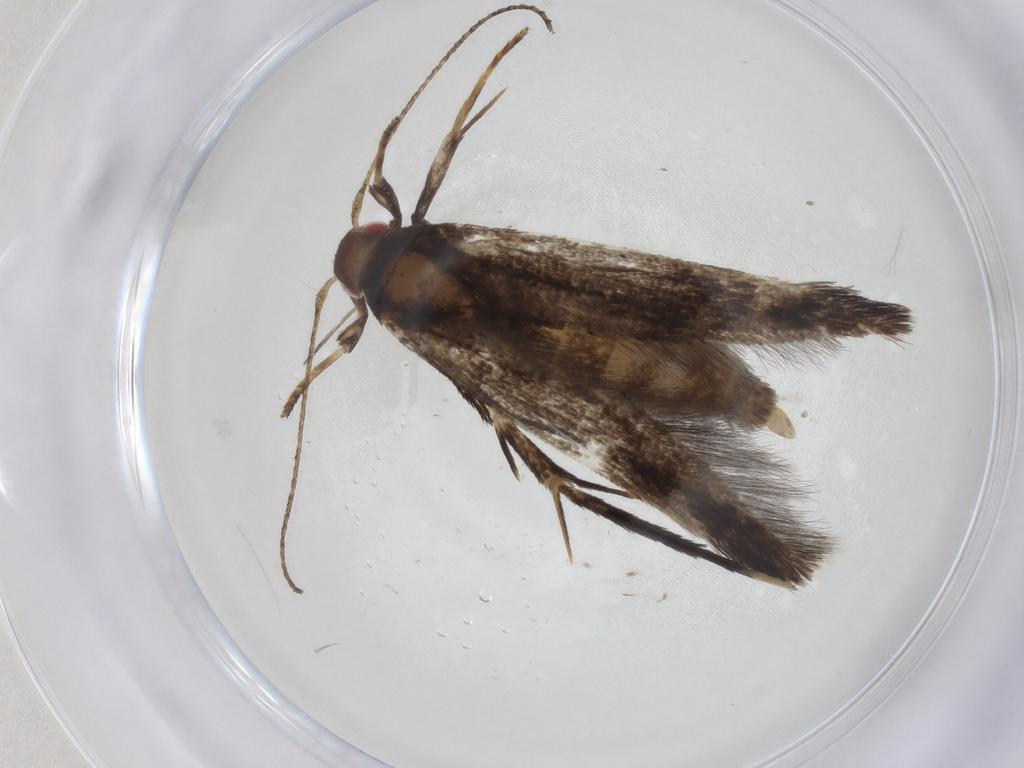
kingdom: Animalia
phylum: Arthropoda
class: Insecta
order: Lepidoptera
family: Gelechiidae
